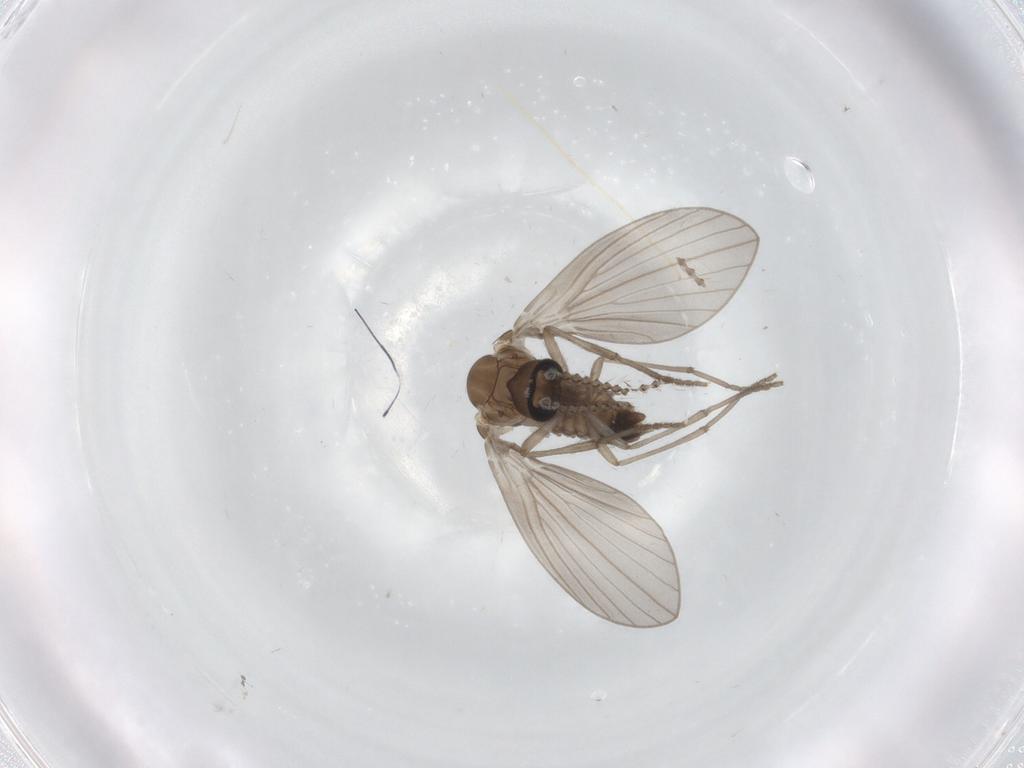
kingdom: Animalia
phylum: Arthropoda
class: Insecta
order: Diptera
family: Psychodidae
